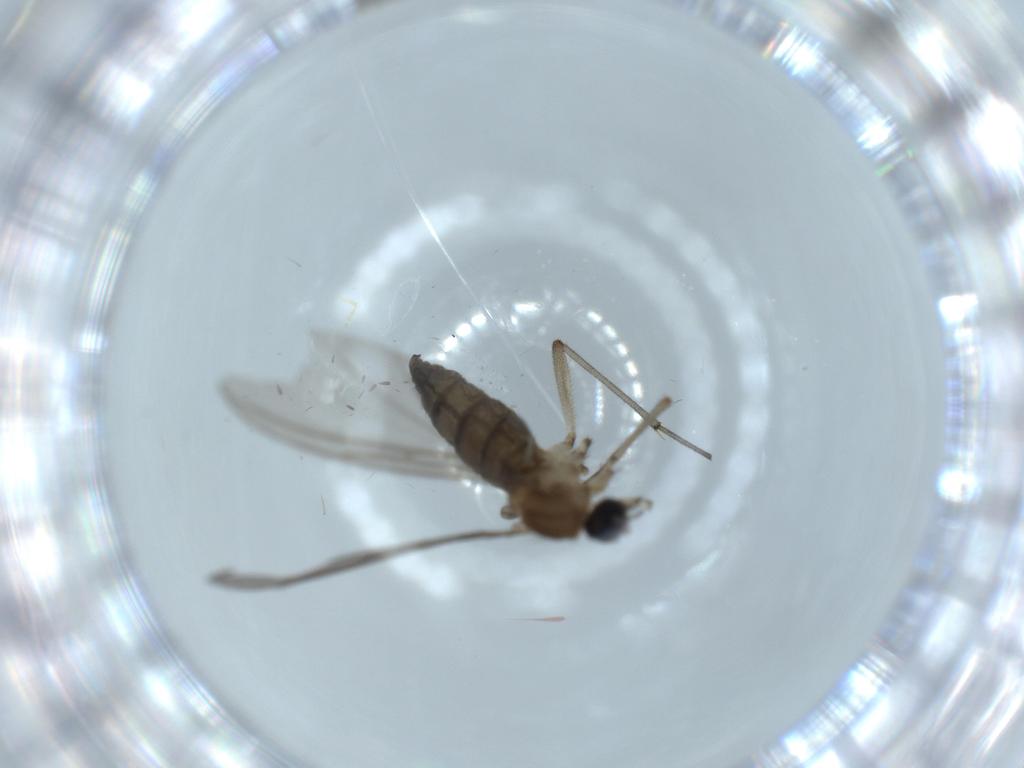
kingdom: Animalia
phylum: Arthropoda
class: Insecta
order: Diptera
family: Sciaridae
